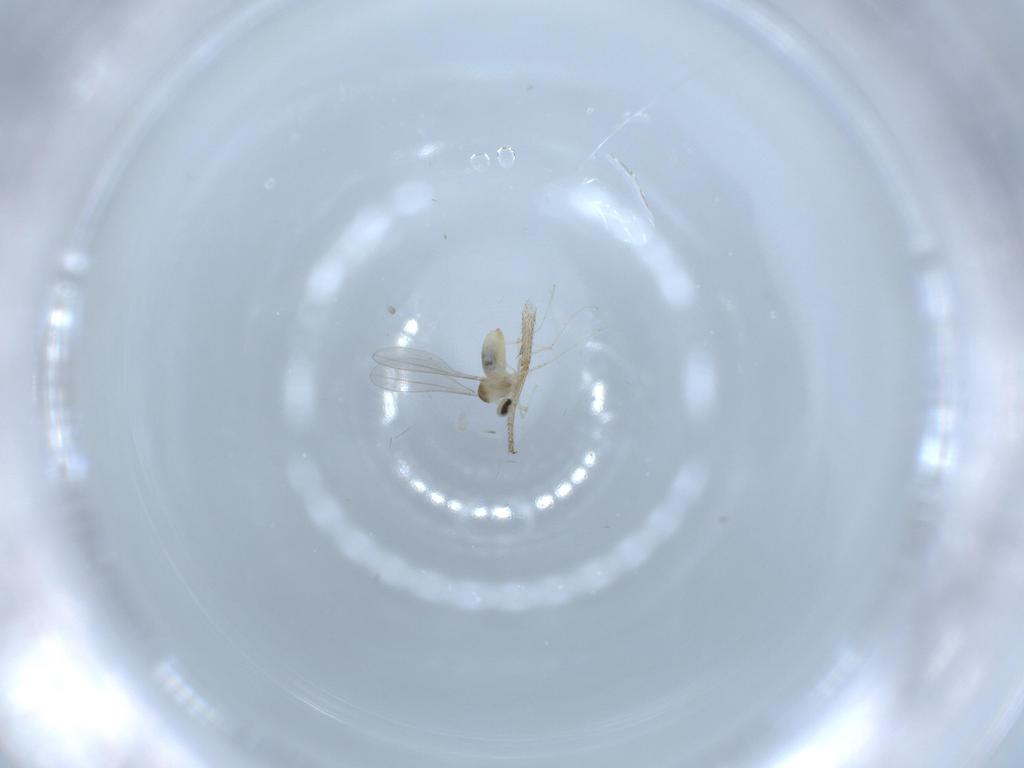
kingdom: Animalia
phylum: Arthropoda
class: Insecta
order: Diptera
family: Cecidomyiidae
